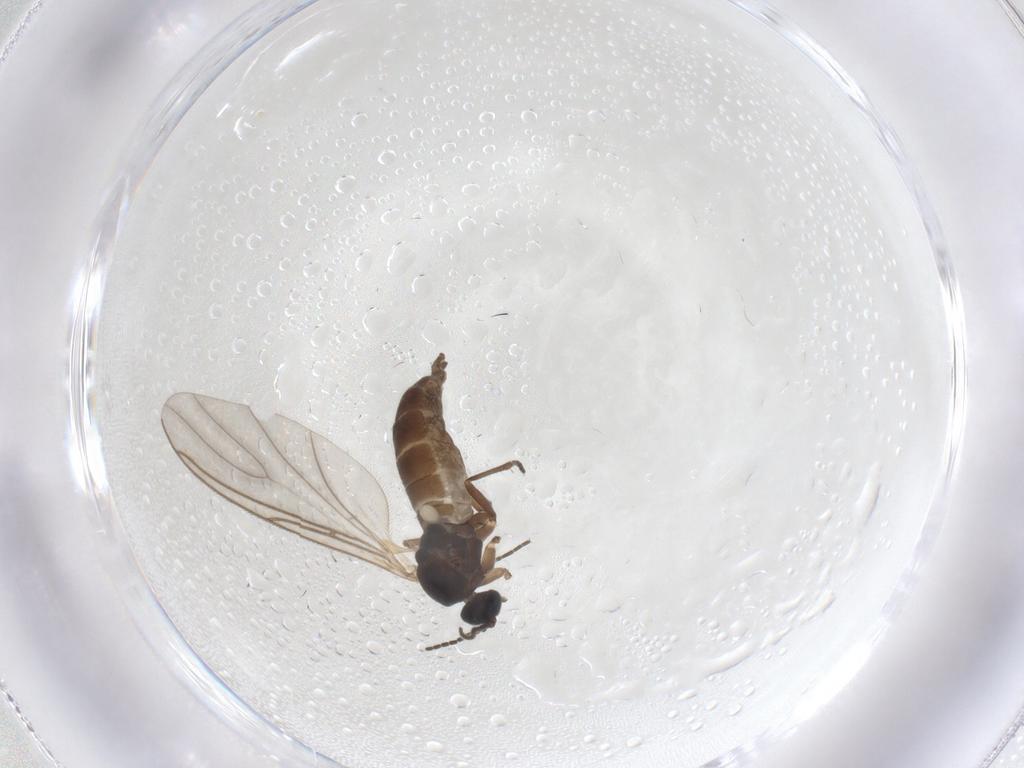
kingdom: Animalia
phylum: Arthropoda
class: Insecta
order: Diptera
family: Sciaridae
